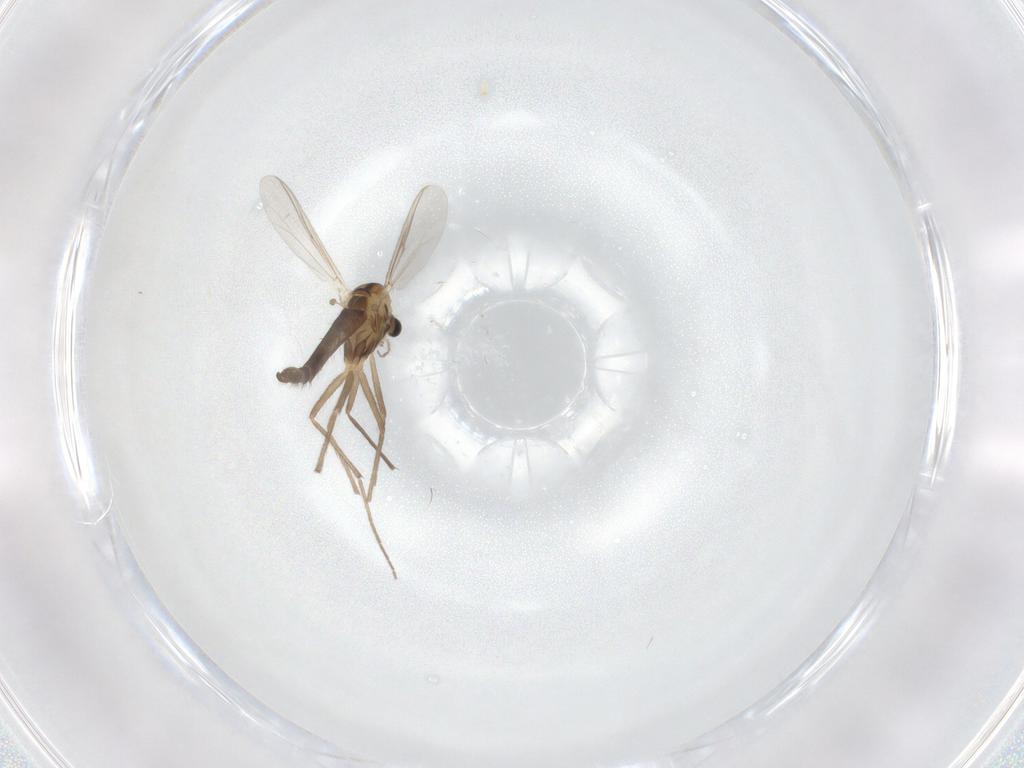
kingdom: Animalia
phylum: Arthropoda
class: Insecta
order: Diptera
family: Chironomidae
